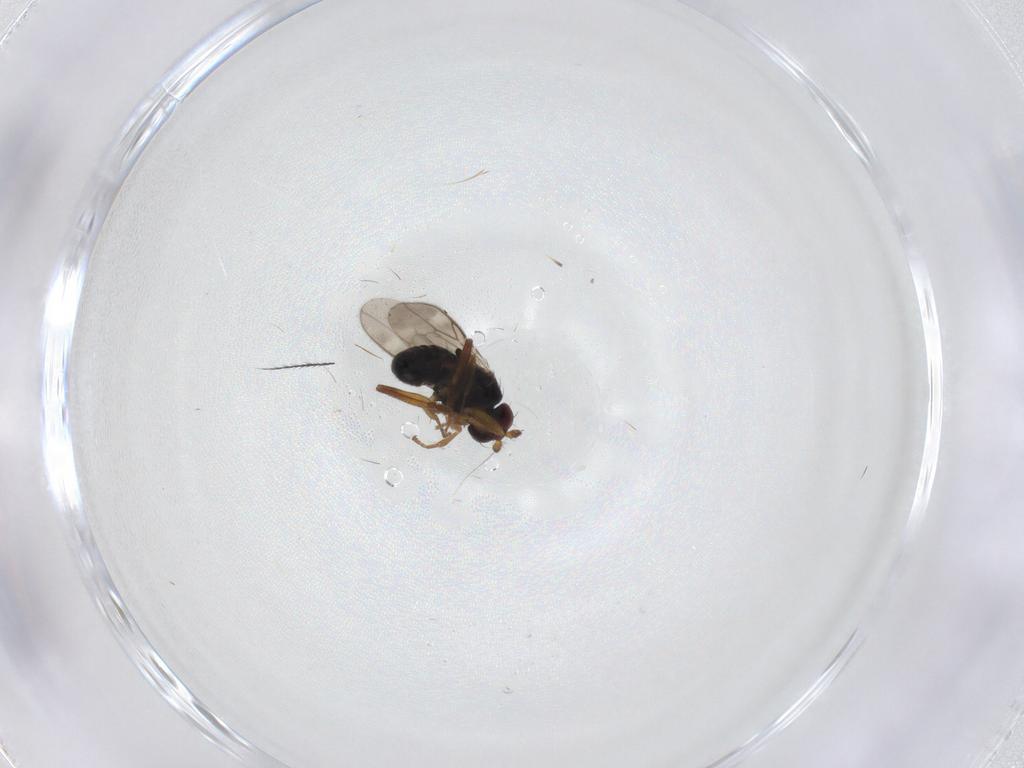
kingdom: Animalia
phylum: Arthropoda
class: Insecta
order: Diptera
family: Sphaeroceridae
